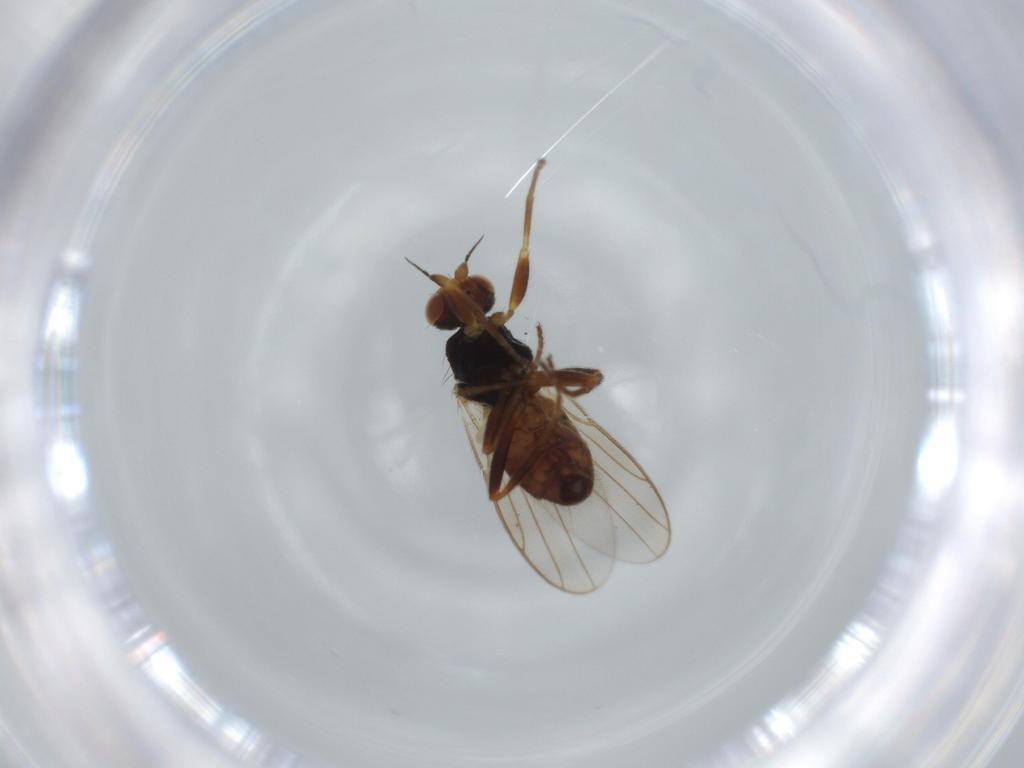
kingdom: Animalia
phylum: Arthropoda
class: Insecta
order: Diptera
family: Chloropidae
